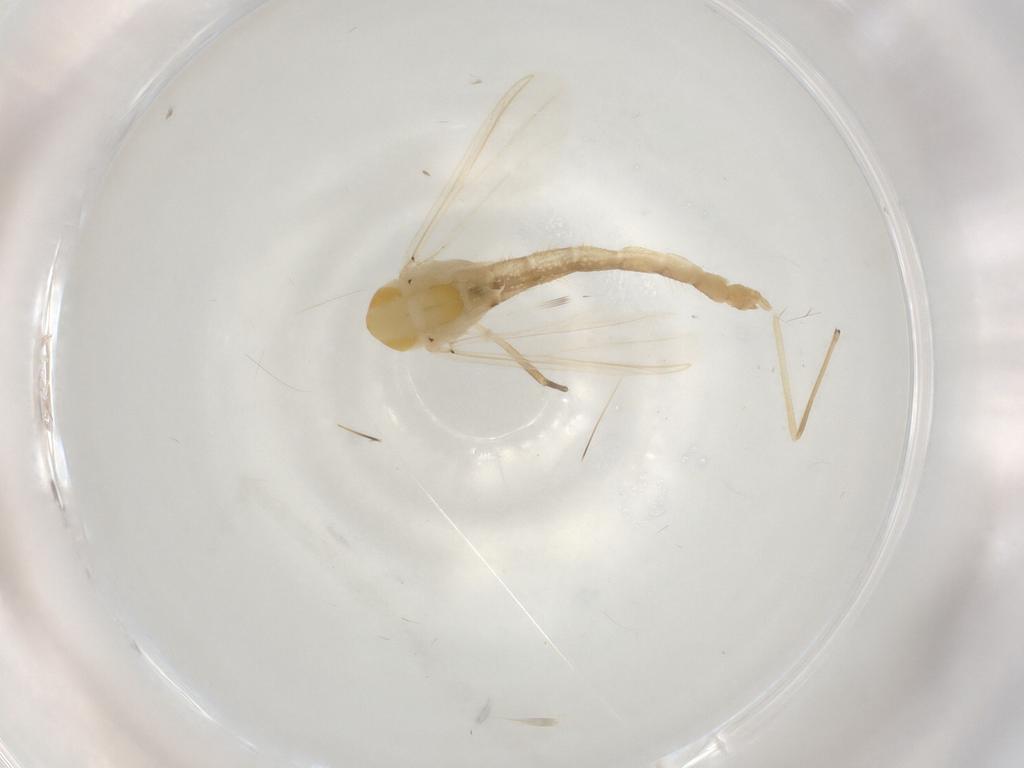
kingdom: Animalia
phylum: Arthropoda
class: Insecta
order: Diptera
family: Chironomidae
